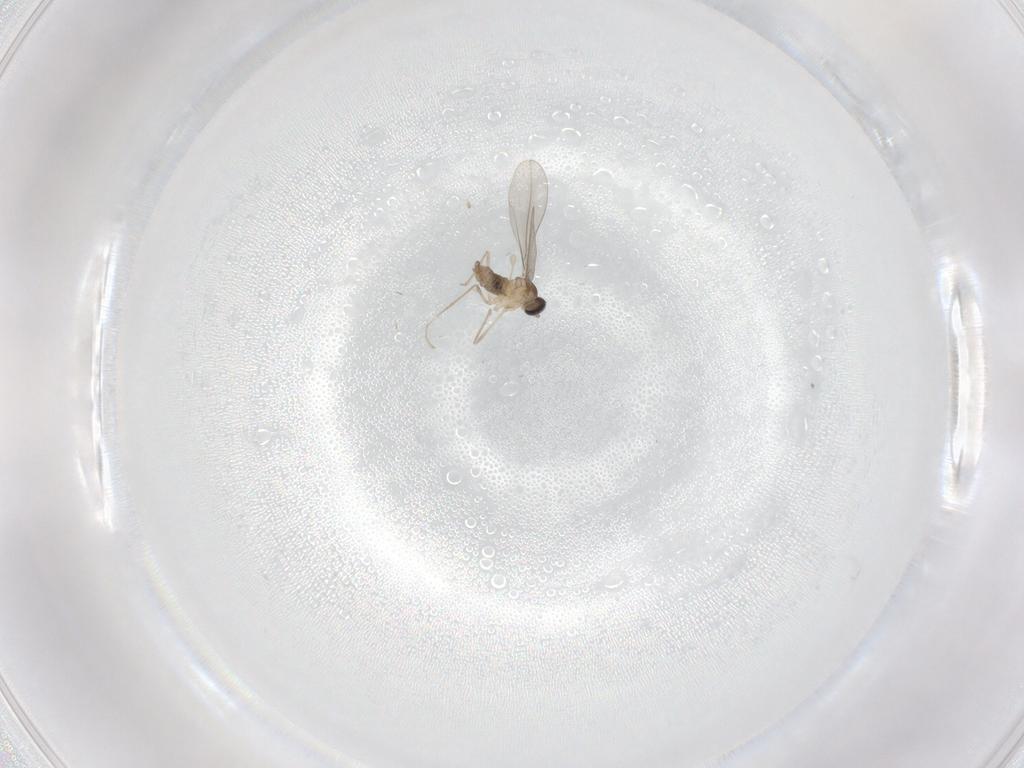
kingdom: Animalia
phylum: Arthropoda
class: Insecta
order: Diptera
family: Cecidomyiidae
